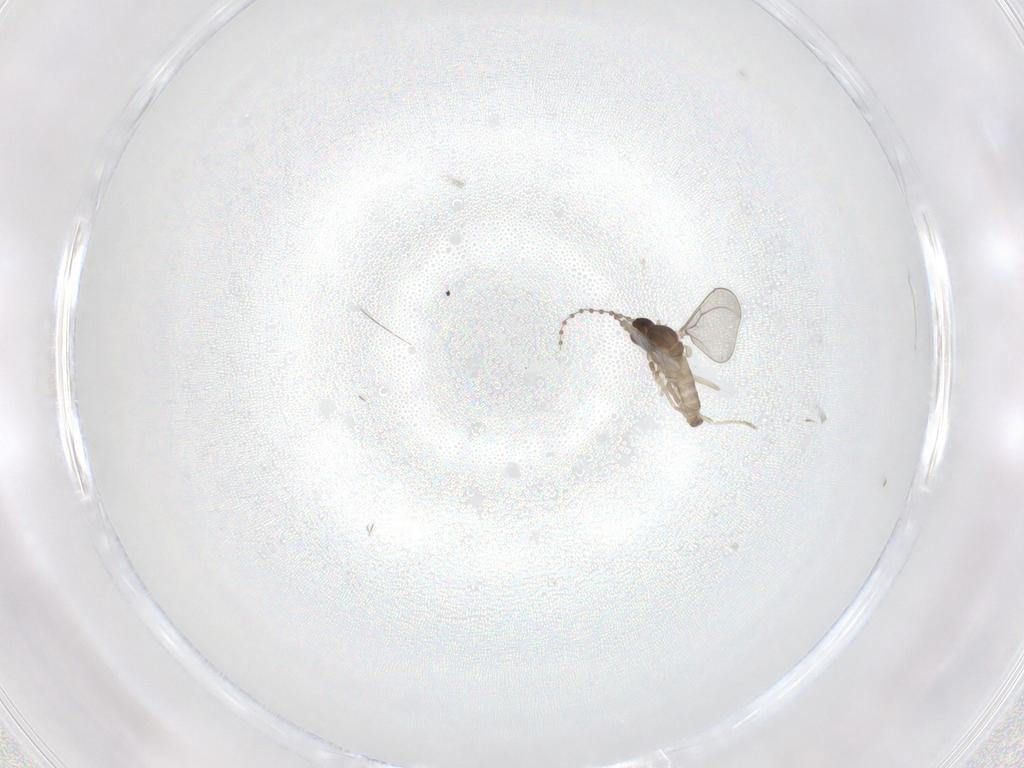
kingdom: Animalia
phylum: Arthropoda
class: Insecta
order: Diptera
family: Cecidomyiidae
